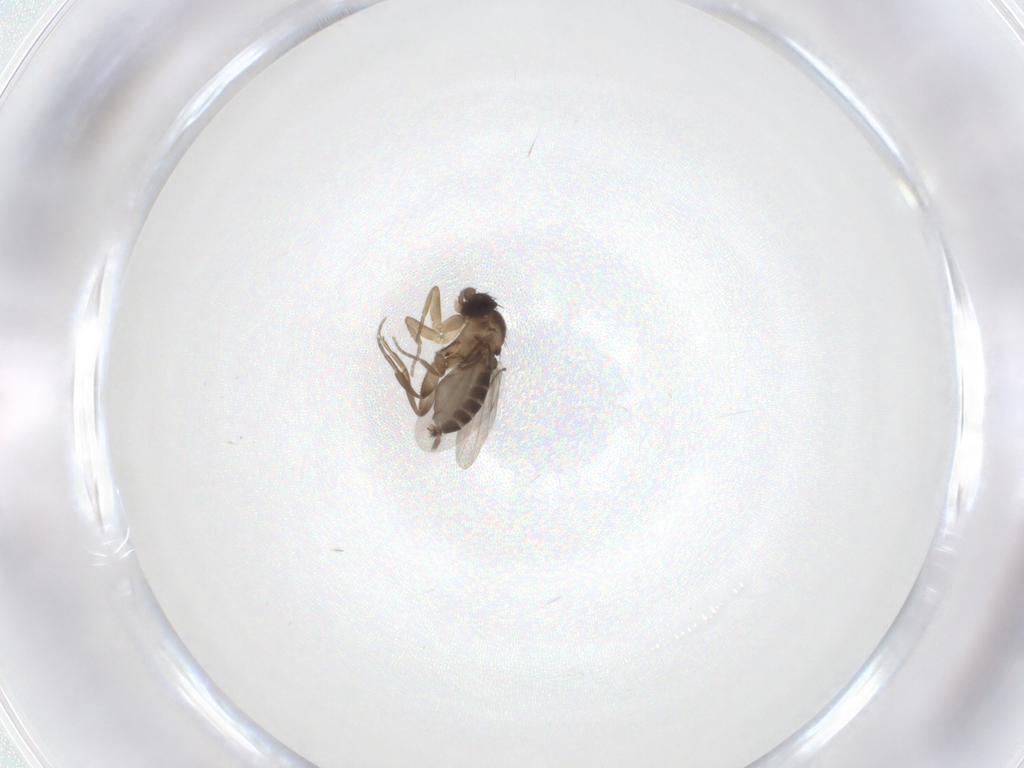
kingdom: Animalia
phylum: Arthropoda
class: Insecta
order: Diptera
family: Phoridae
